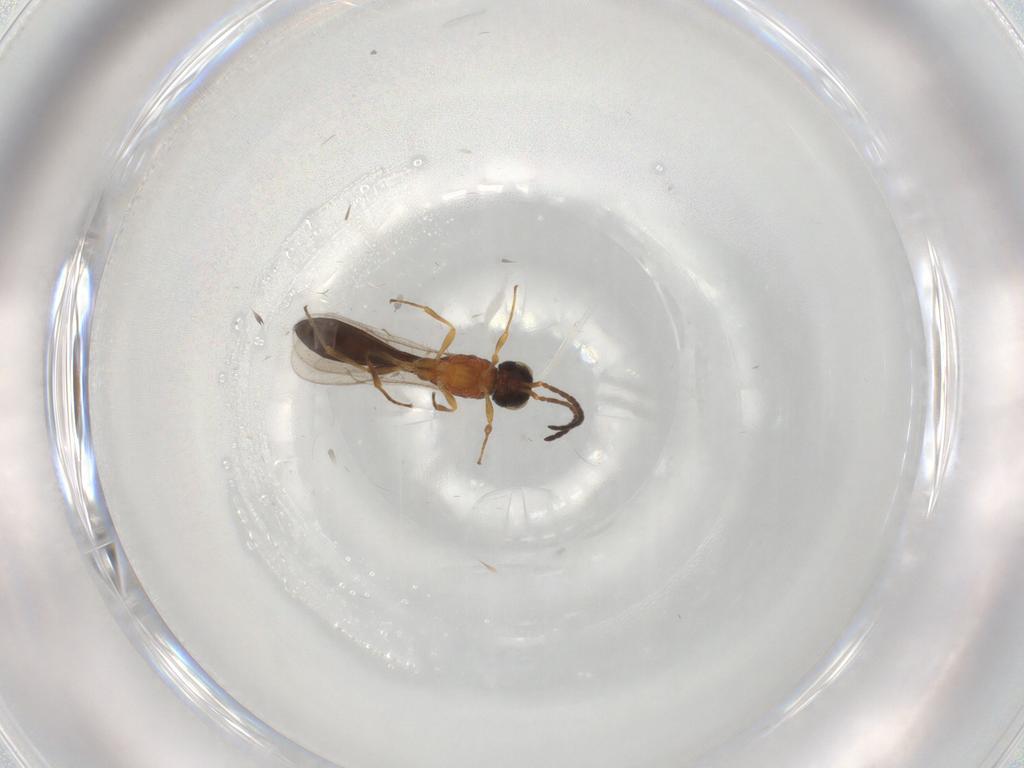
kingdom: Animalia
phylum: Arthropoda
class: Insecta
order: Hymenoptera
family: Scelionidae
